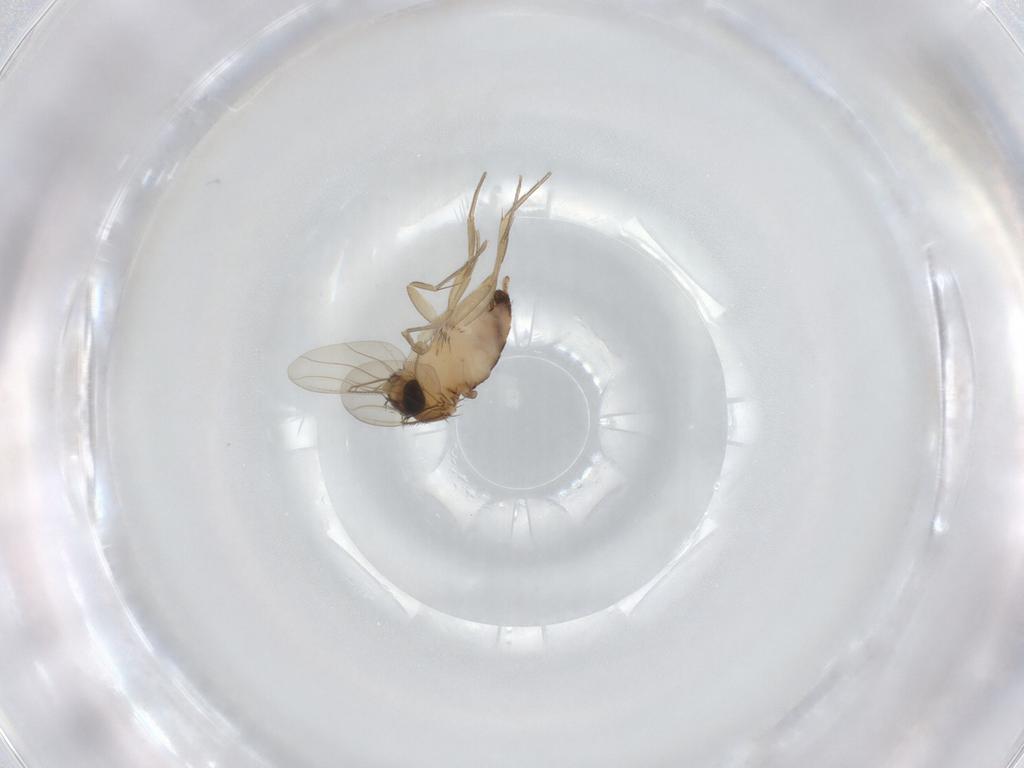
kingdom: Animalia
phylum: Arthropoda
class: Insecta
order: Diptera
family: Phoridae
